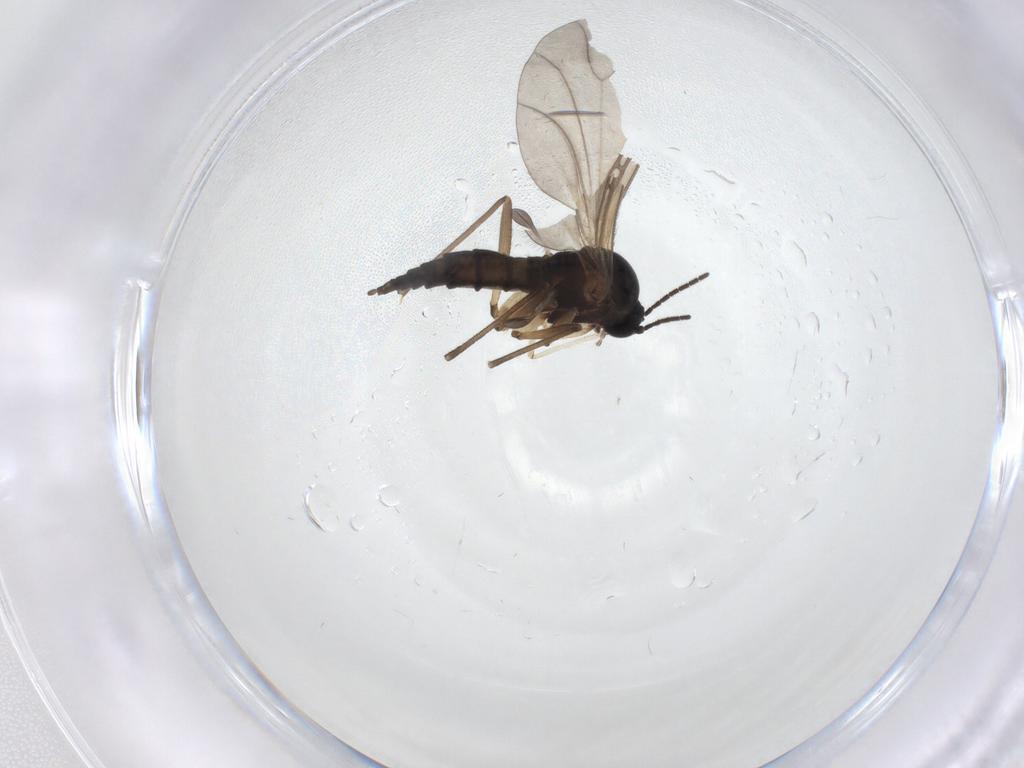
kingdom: Animalia
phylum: Arthropoda
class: Insecta
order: Diptera
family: Sciaridae
